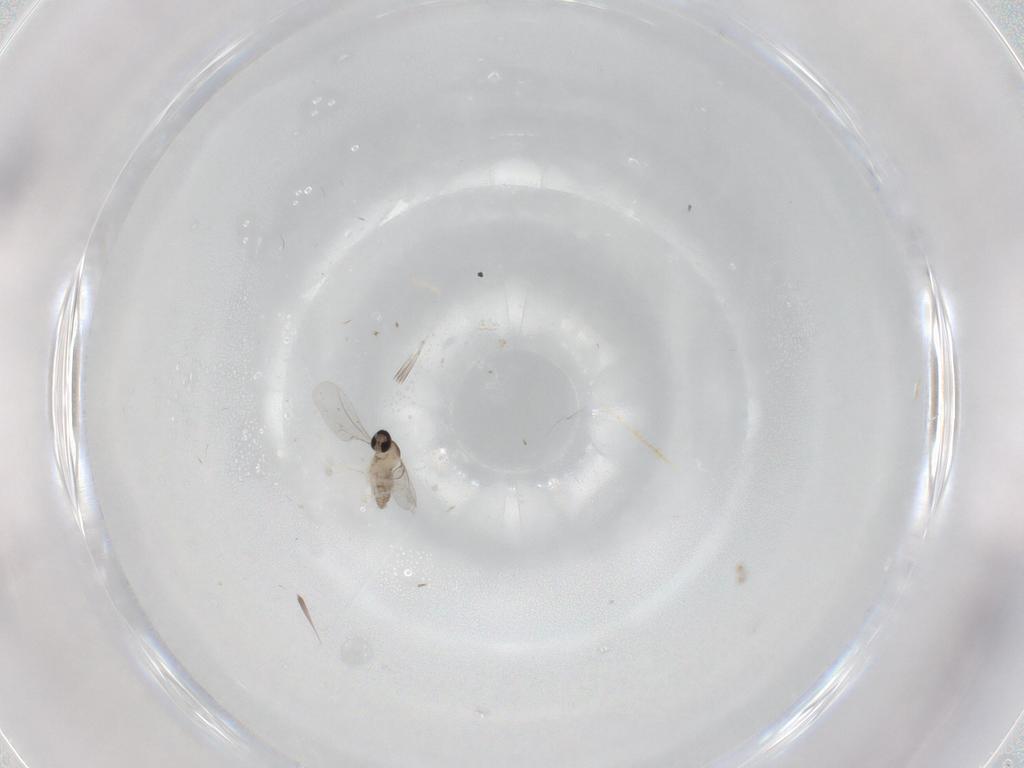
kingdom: Animalia
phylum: Arthropoda
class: Insecta
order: Diptera
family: Cecidomyiidae
